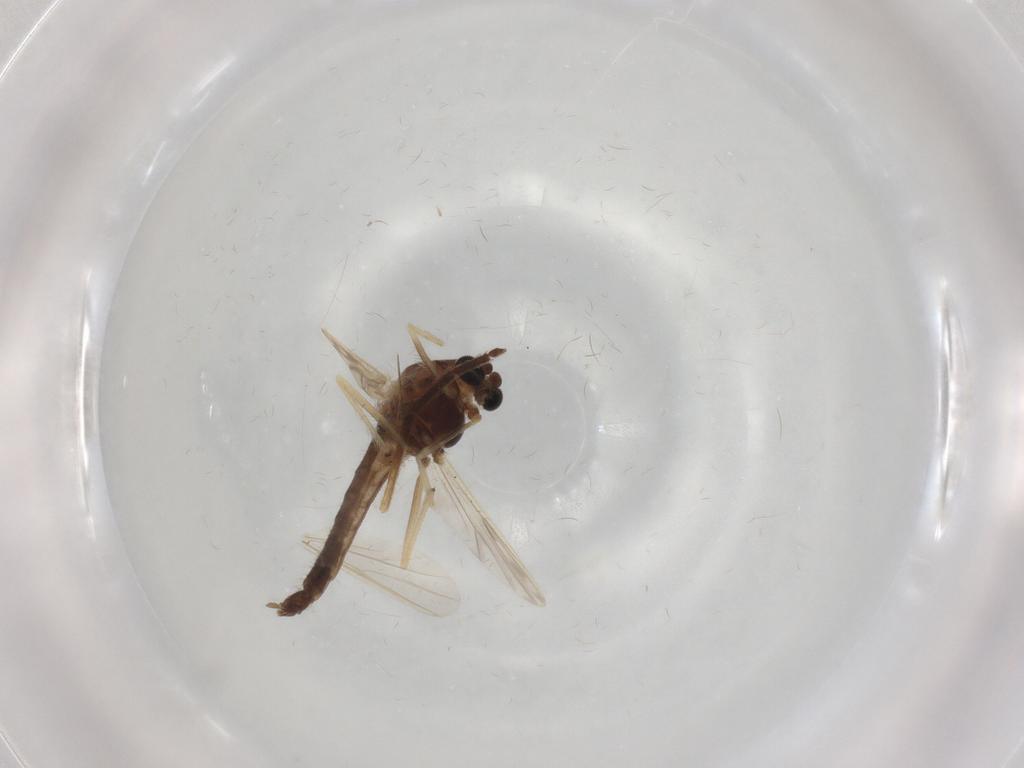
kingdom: Animalia
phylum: Arthropoda
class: Insecta
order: Diptera
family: Chironomidae
